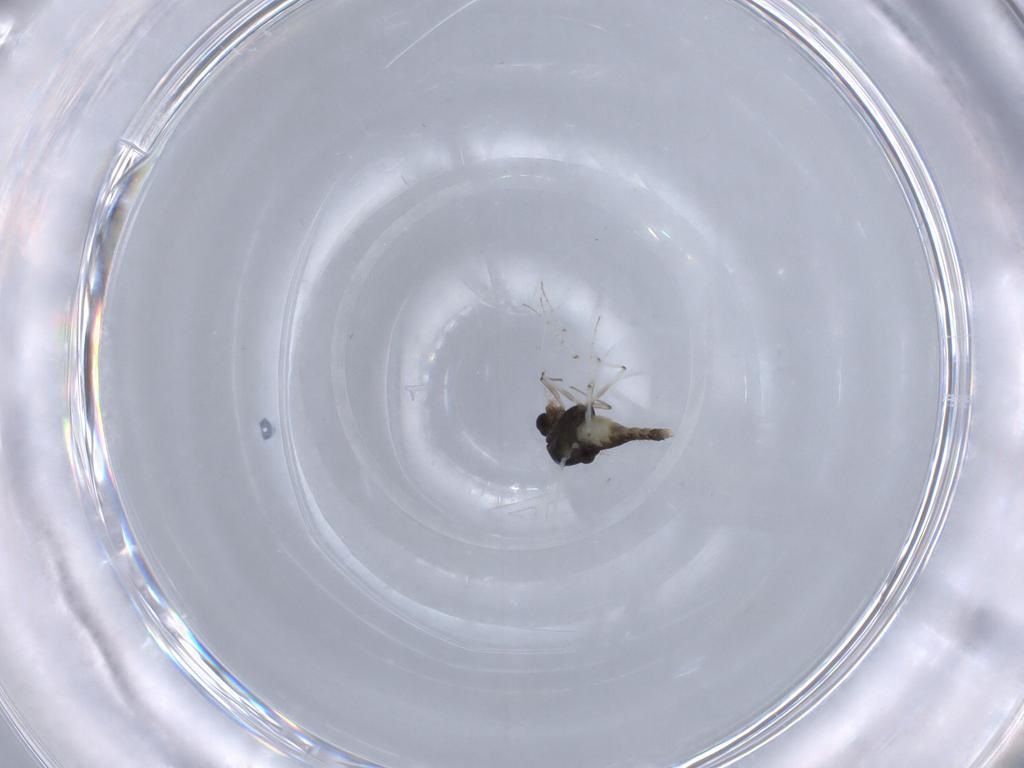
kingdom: Animalia
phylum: Arthropoda
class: Insecta
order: Diptera
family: Chironomidae
